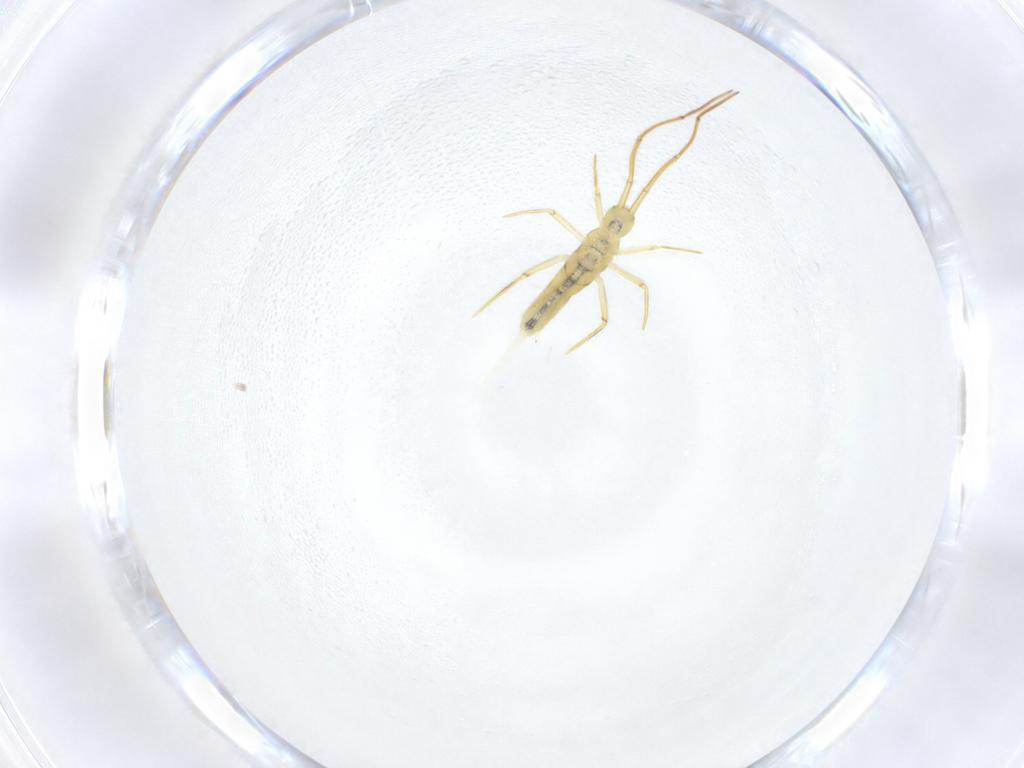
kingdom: Animalia
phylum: Arthropoda
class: Collembola
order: Entomobryomorpha
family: Entomobryidae
